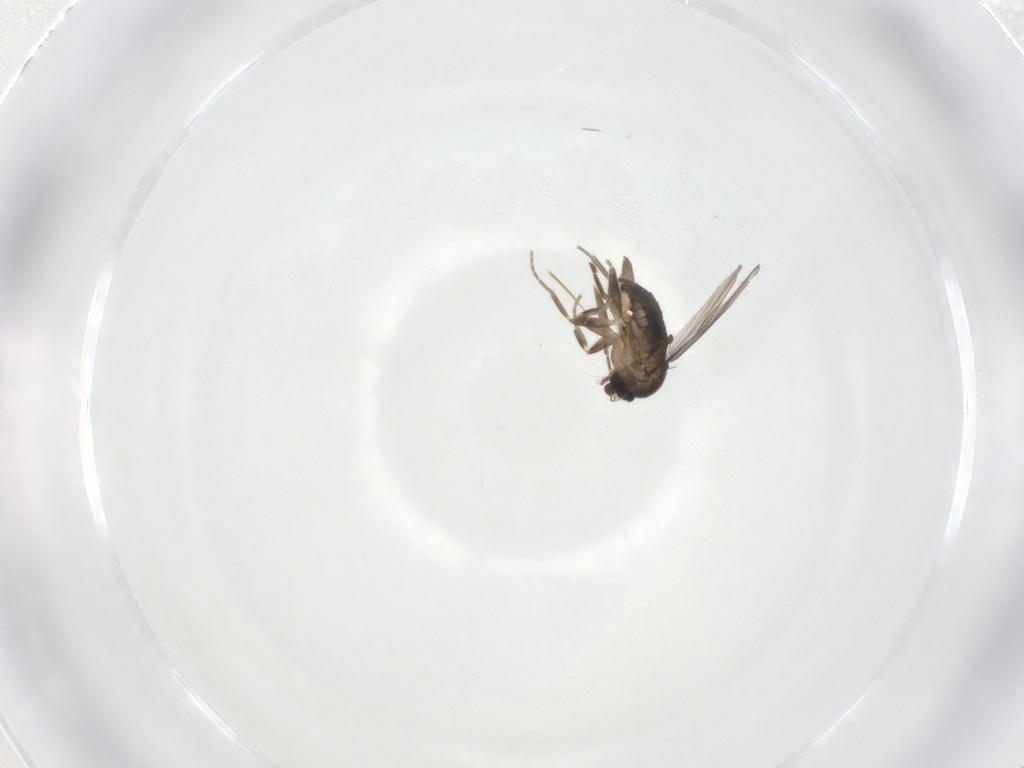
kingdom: Animalia
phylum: Arthropoda
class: Insecta
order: Diptera
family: Phoridae
